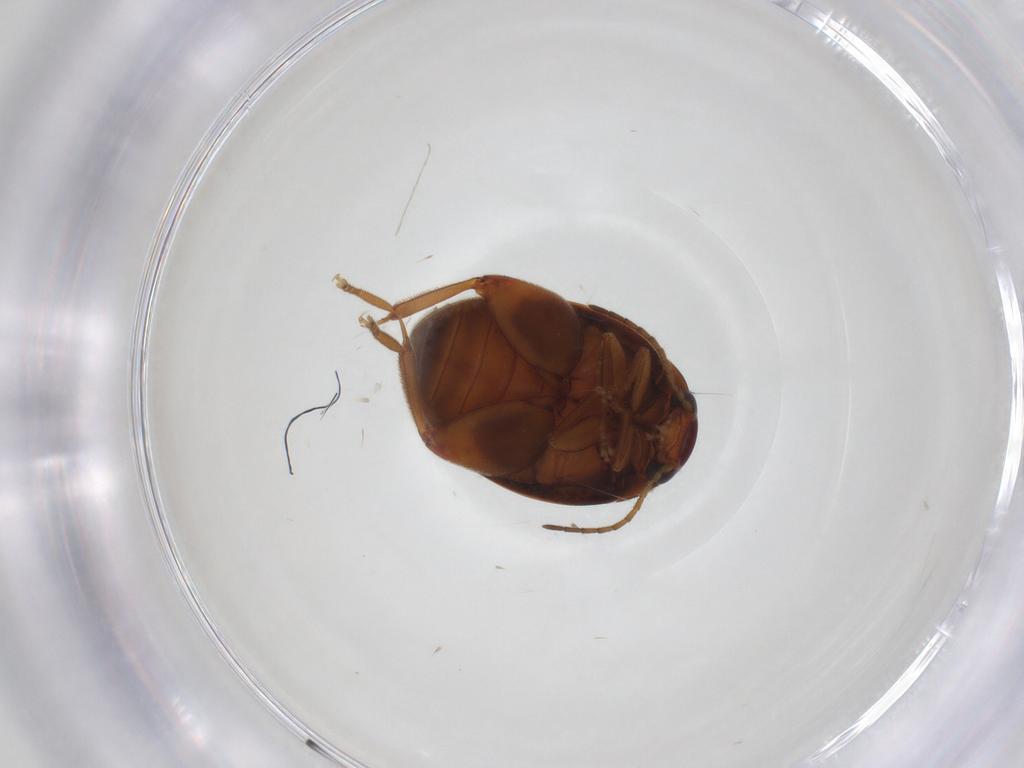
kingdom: Animalia
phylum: Arthropoda
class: Insecta
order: Coleoptera
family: Scirtidae
